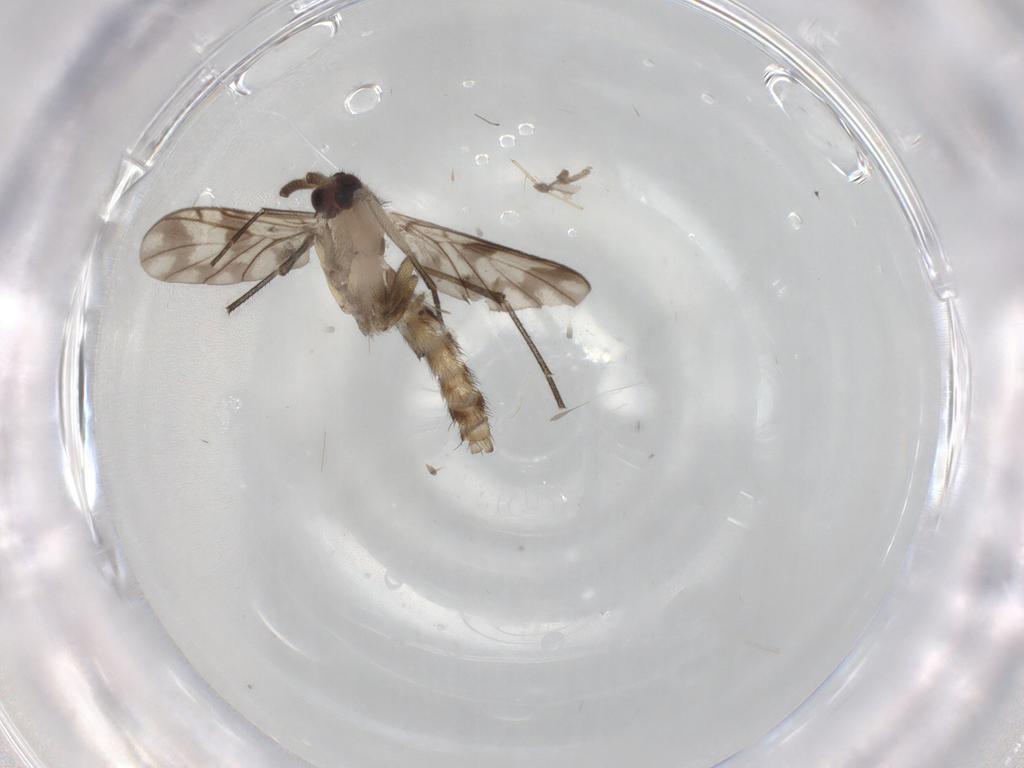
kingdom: Animalia
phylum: Arthropoda
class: Insecta
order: Diptera
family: Keroplatidae
